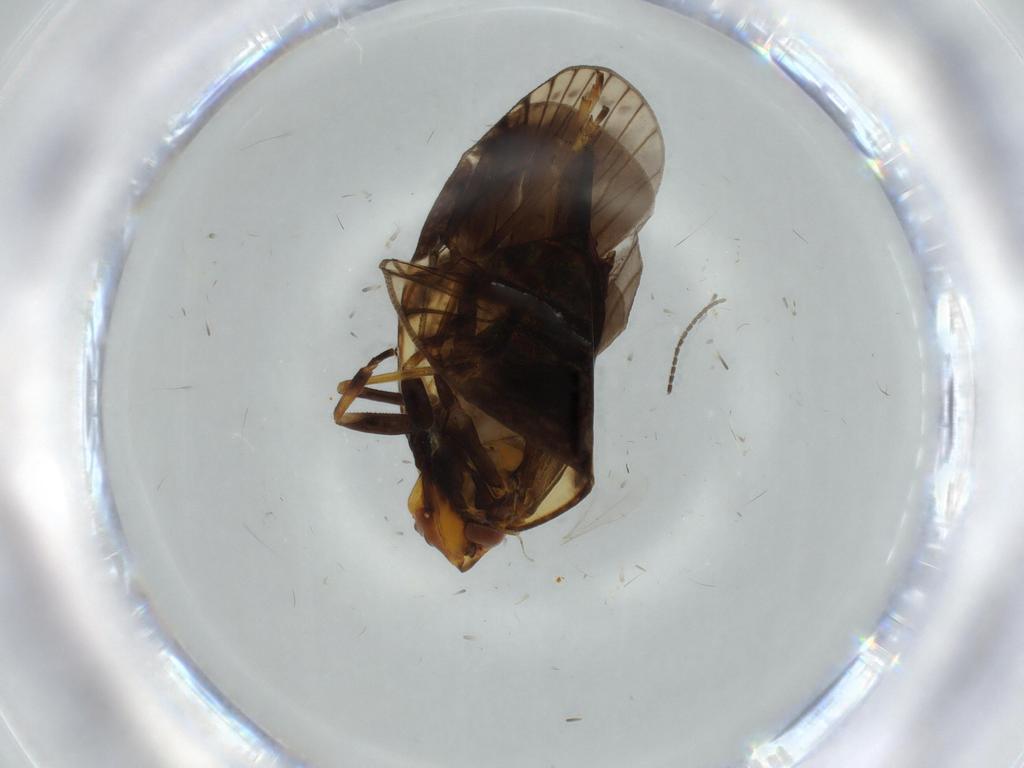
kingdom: Animalia
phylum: Arthropoda
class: Insecta
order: Hemiptera
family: Cixiidae
